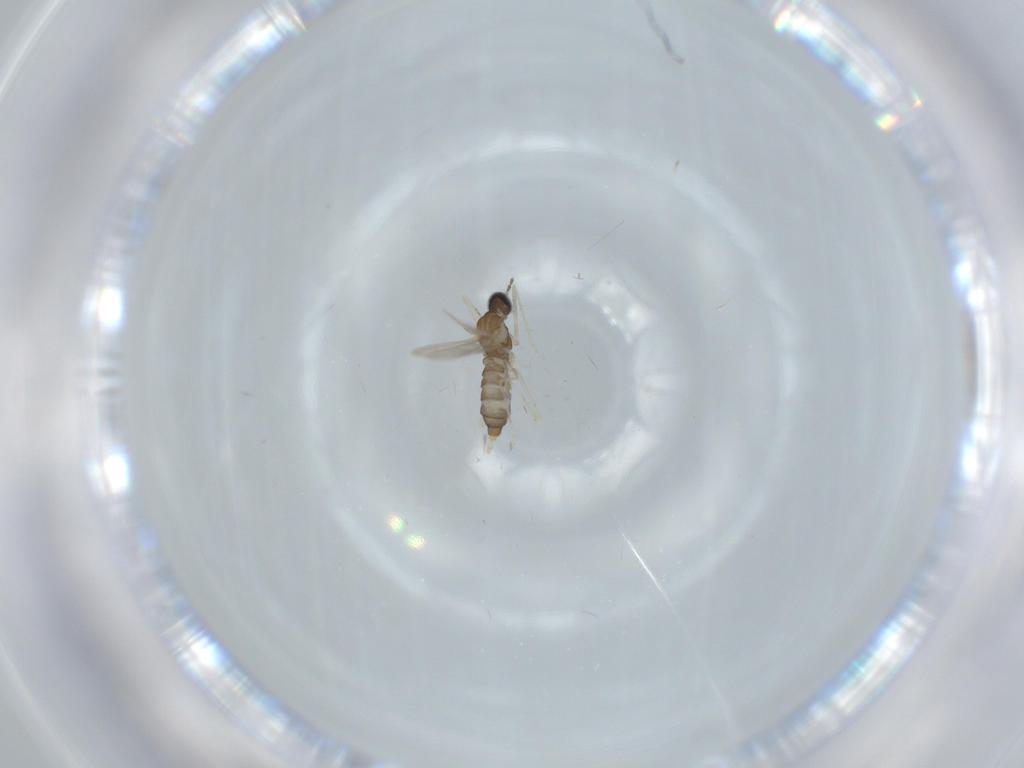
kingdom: Animalia
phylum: Arthropoda
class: Insecta
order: Diptera
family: Cecidomyiidae
